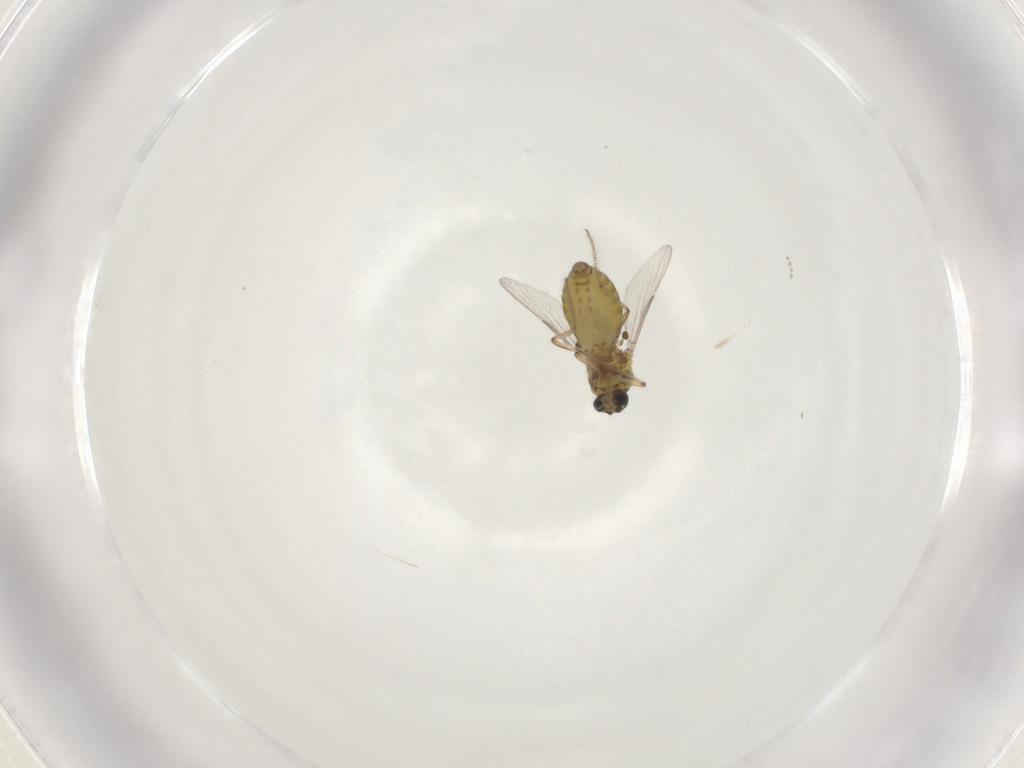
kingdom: Animalia
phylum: Arthropoda
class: Insecta
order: Diptera
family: Ceratopogonidae
